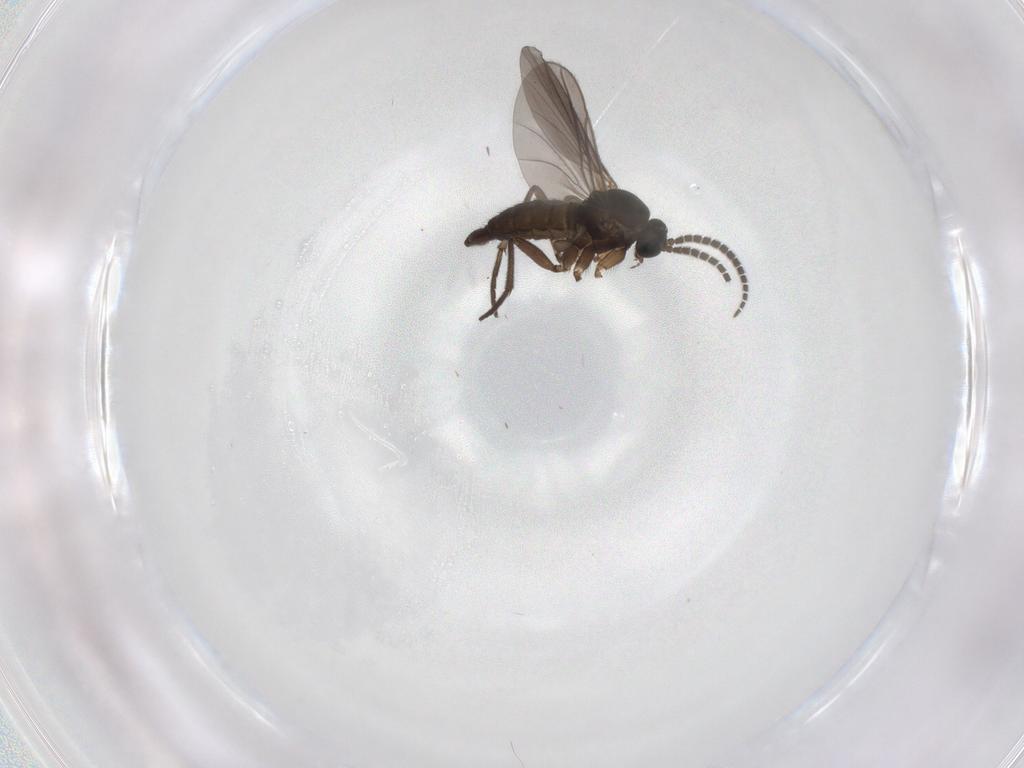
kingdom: Animalia
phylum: Arthropoda
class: Insecta
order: Diptera
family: Sciaridae
